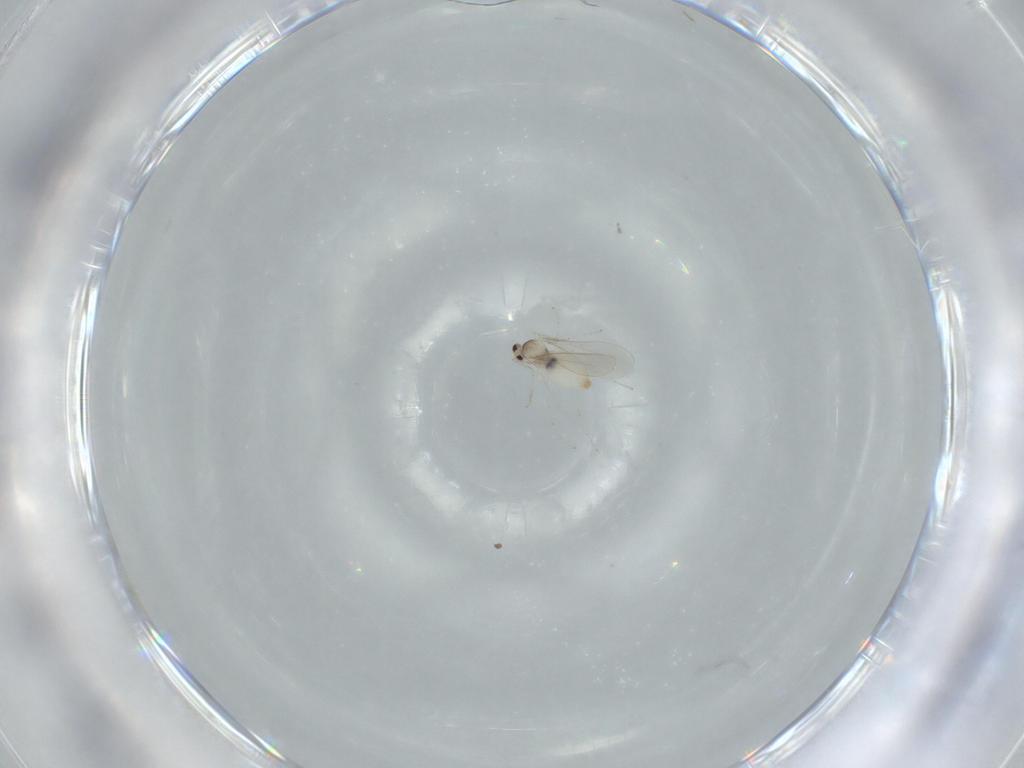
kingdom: Animalia
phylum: Arthropoda
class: Insecta
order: Diptera
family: Cecidomyiidae
